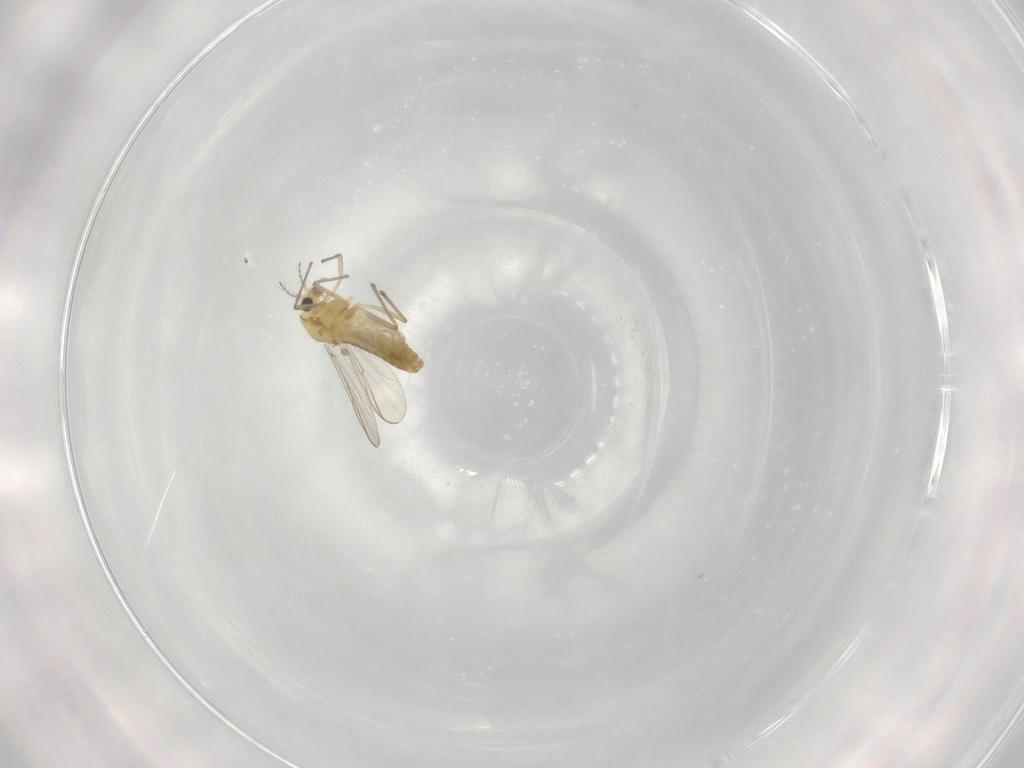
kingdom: Animalia
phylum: Arthropoda
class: Insecta
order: Diptera
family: Chironomidae
